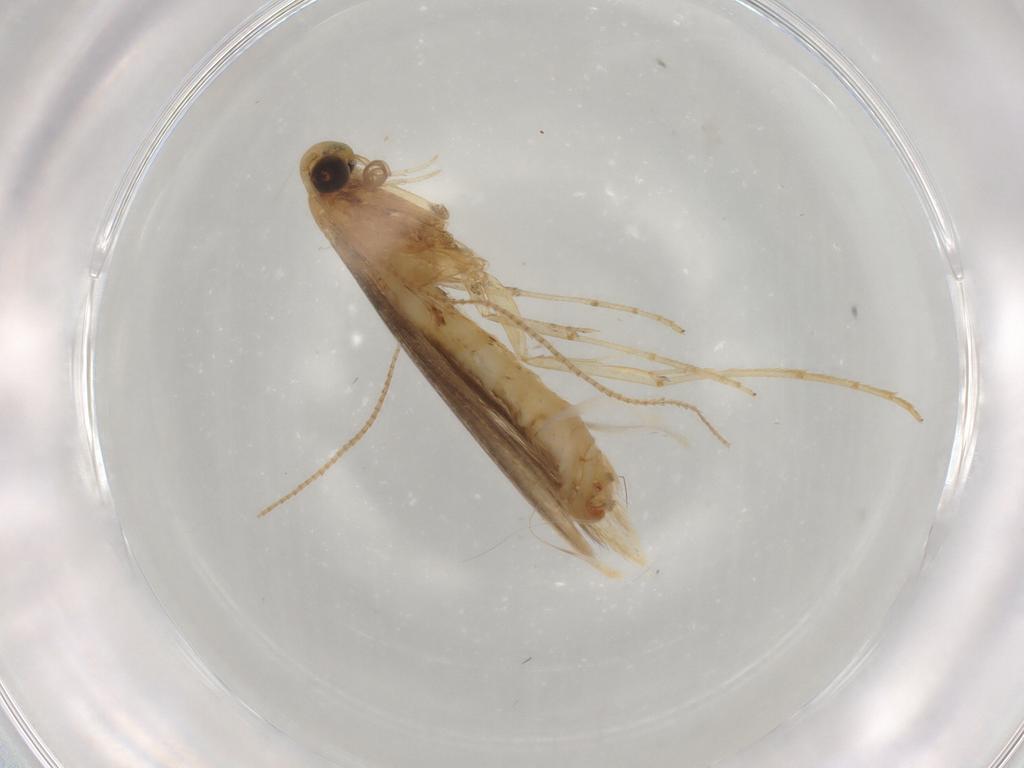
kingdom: Animalia
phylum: Arthropoda
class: Insecta
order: Lepidoptera
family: Gracillariidae
